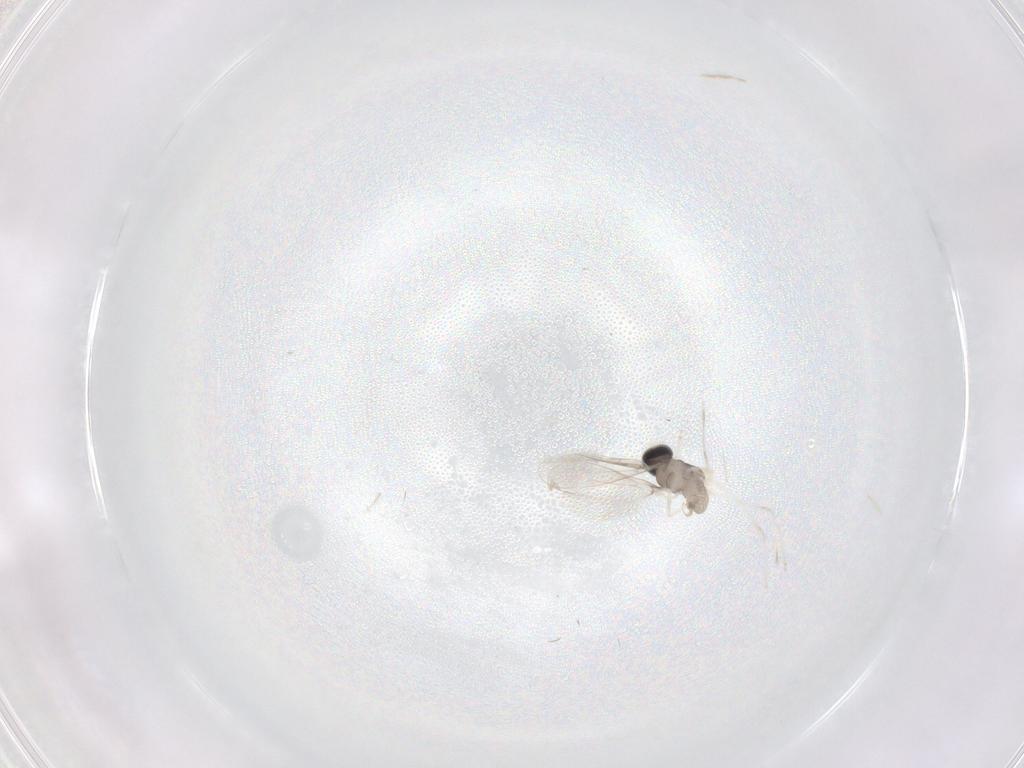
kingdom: Animalia
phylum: Arthropoda
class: Insecta
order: Diptera
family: Cecidomyiidae
